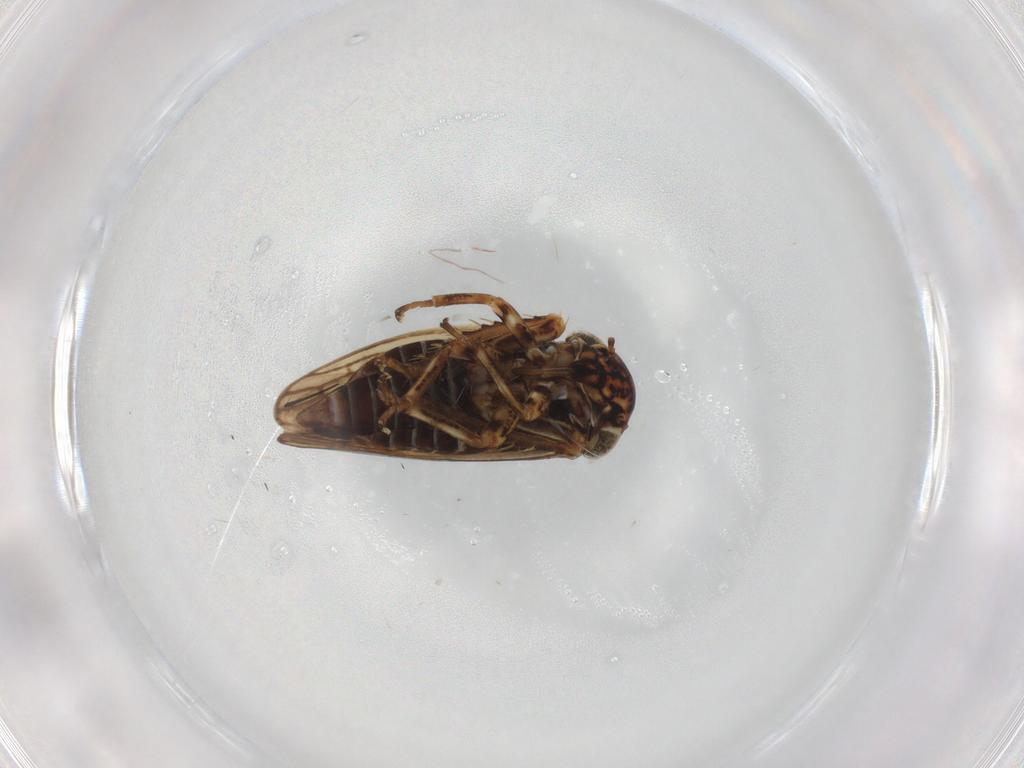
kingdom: Animalia
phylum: Arthropoda
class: Insecta
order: Hemiptera
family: Cicadellidae
